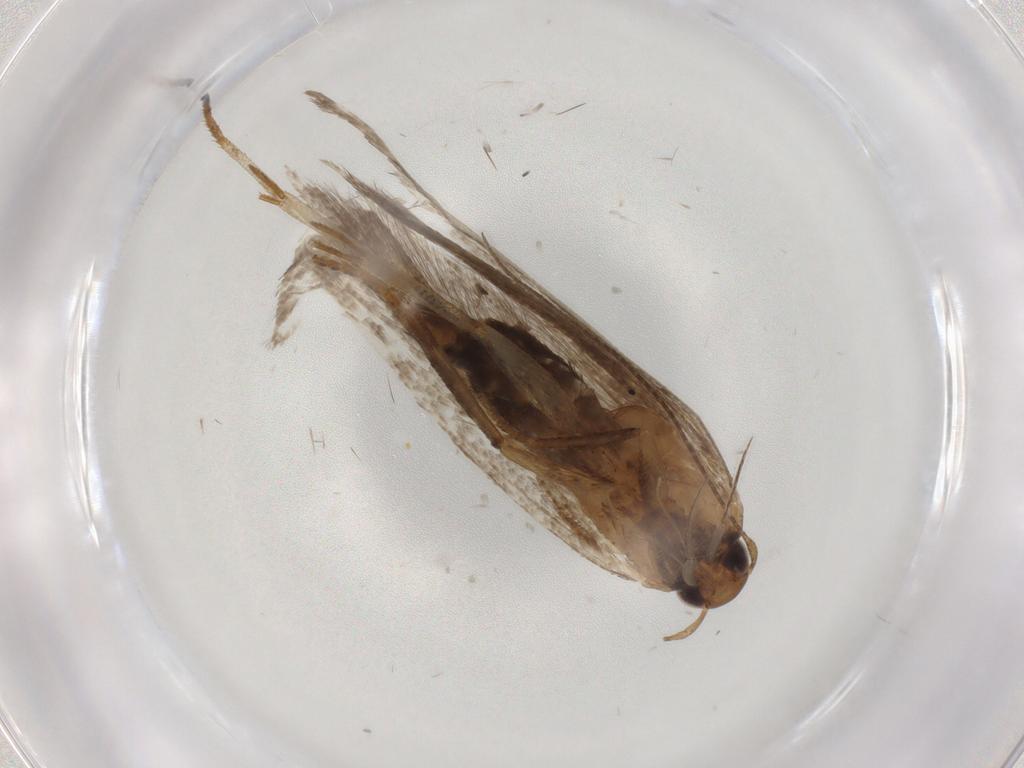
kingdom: Animalia
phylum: Arthropoda
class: Insecta
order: Lepidoptera
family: Gelechiidae
